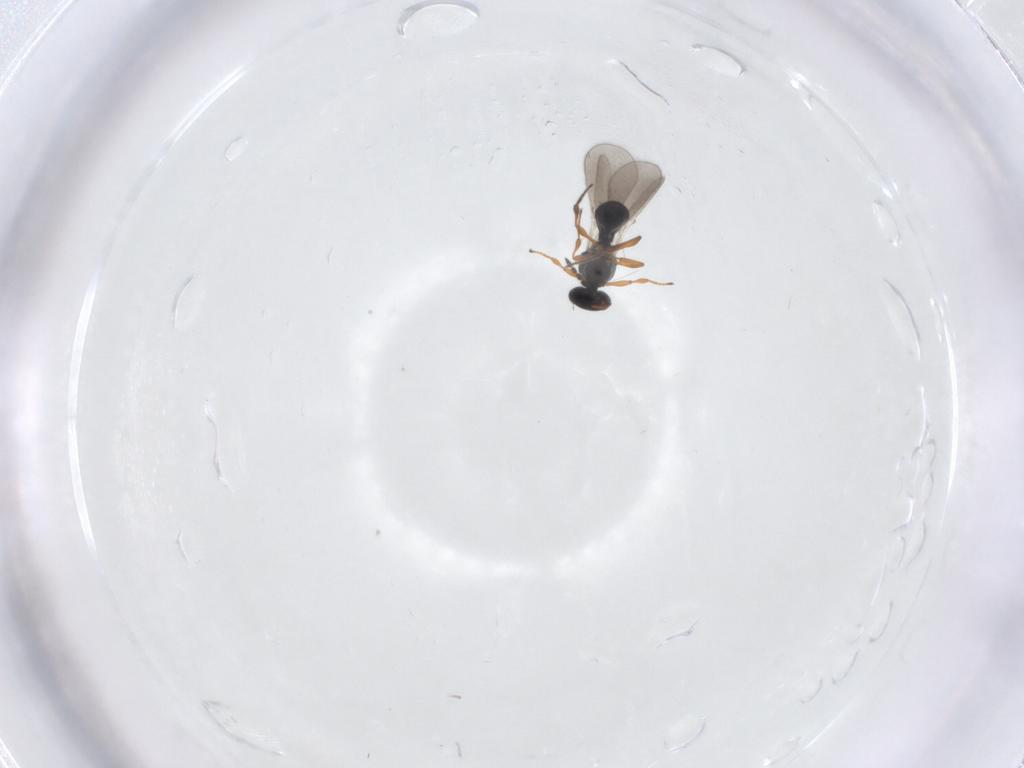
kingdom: Animalia
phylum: Arthropoda
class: Insecta
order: Hymenoptera
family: Platygastridae
